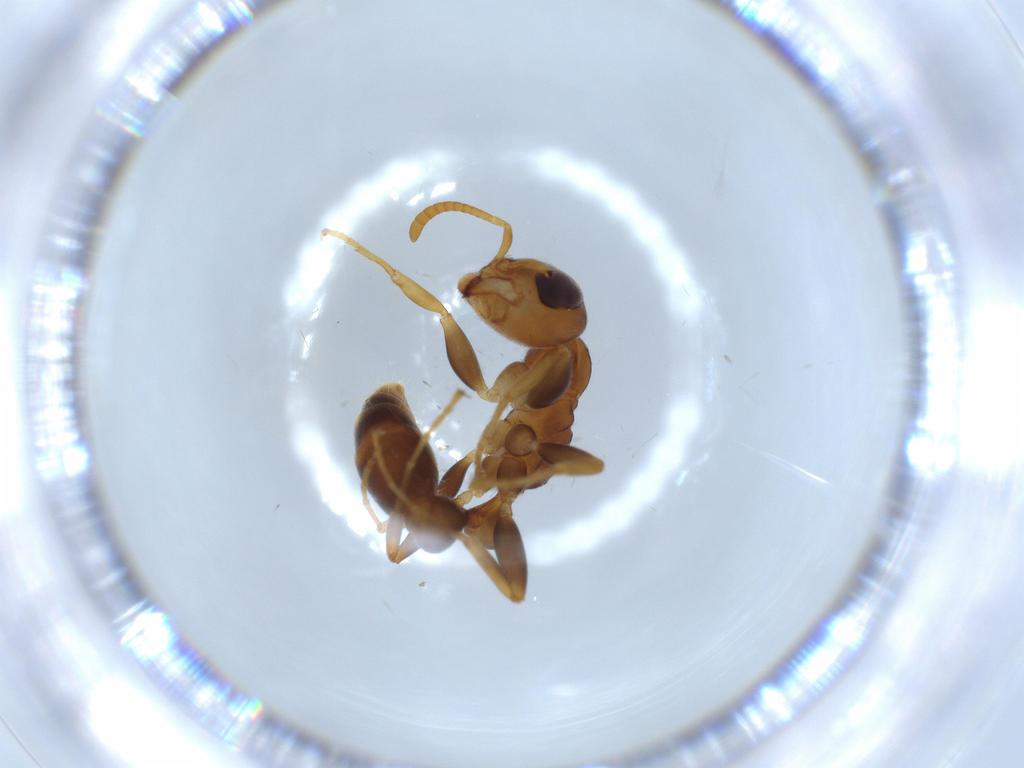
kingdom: Animalia
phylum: Arthropoda
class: Insecta
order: Hymenoptera
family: Formicidae
